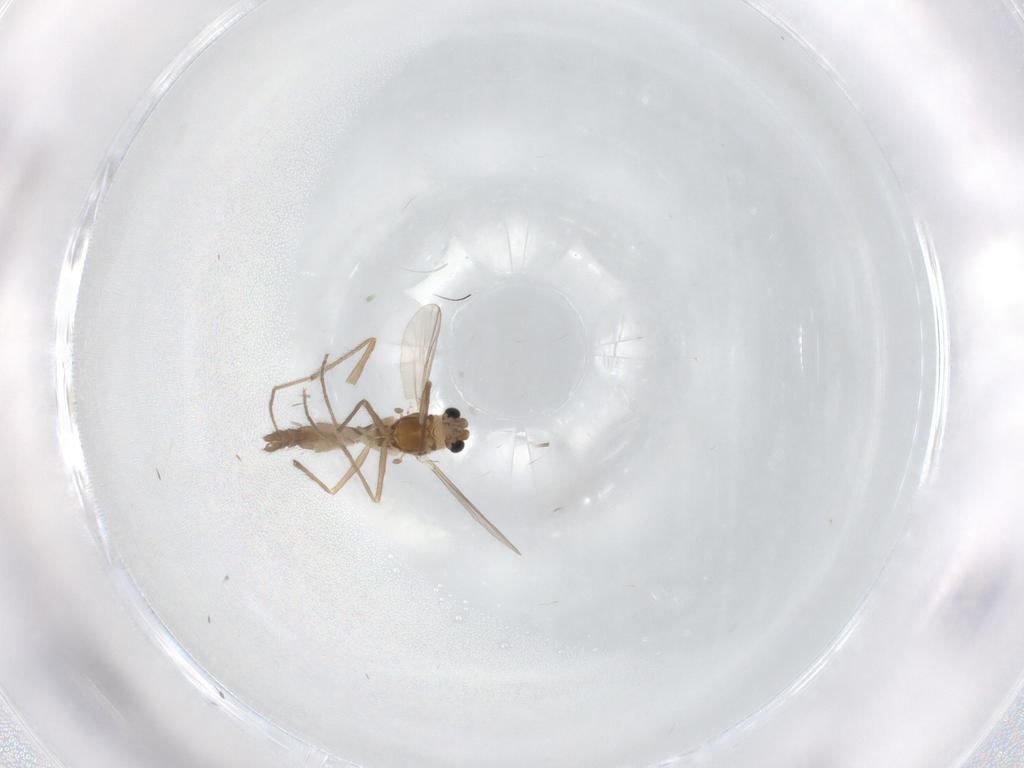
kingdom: Animalia
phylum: Arthropoda
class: Insecta
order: Diptera
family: Chironomidae
